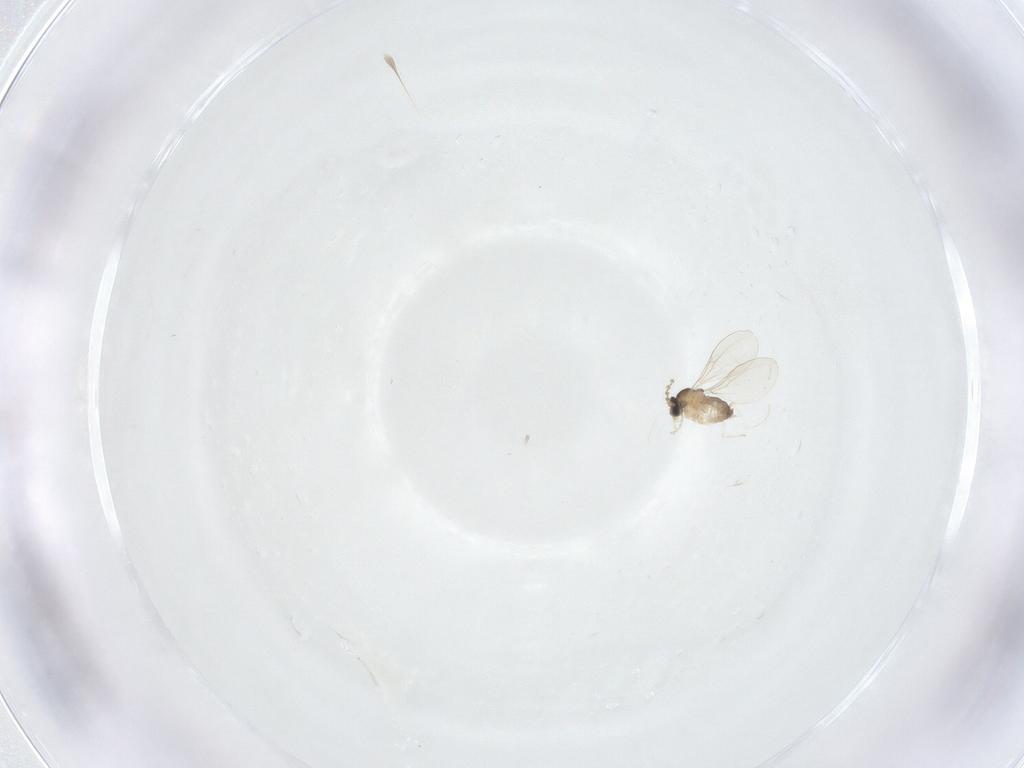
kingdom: Animalia
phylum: Arthropoda
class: Insecta
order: Diptera
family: Cecidomyiidae
